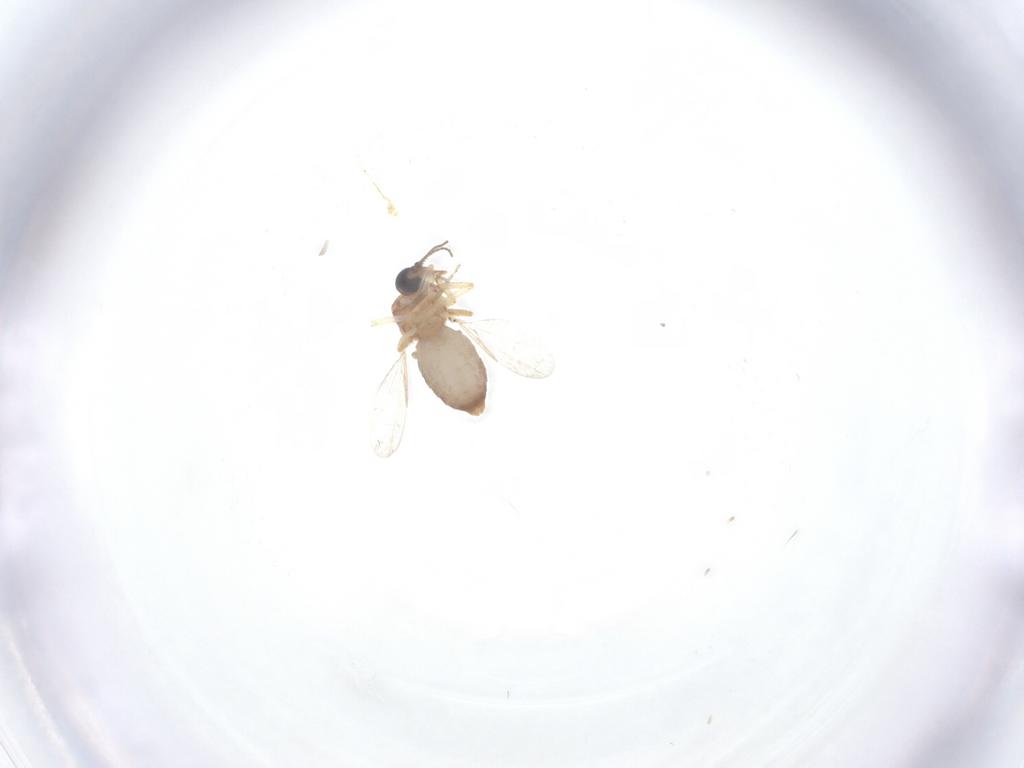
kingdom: Animalia
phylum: Arthropoda
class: Insecta
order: Diptera
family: Ceratopogonidae
